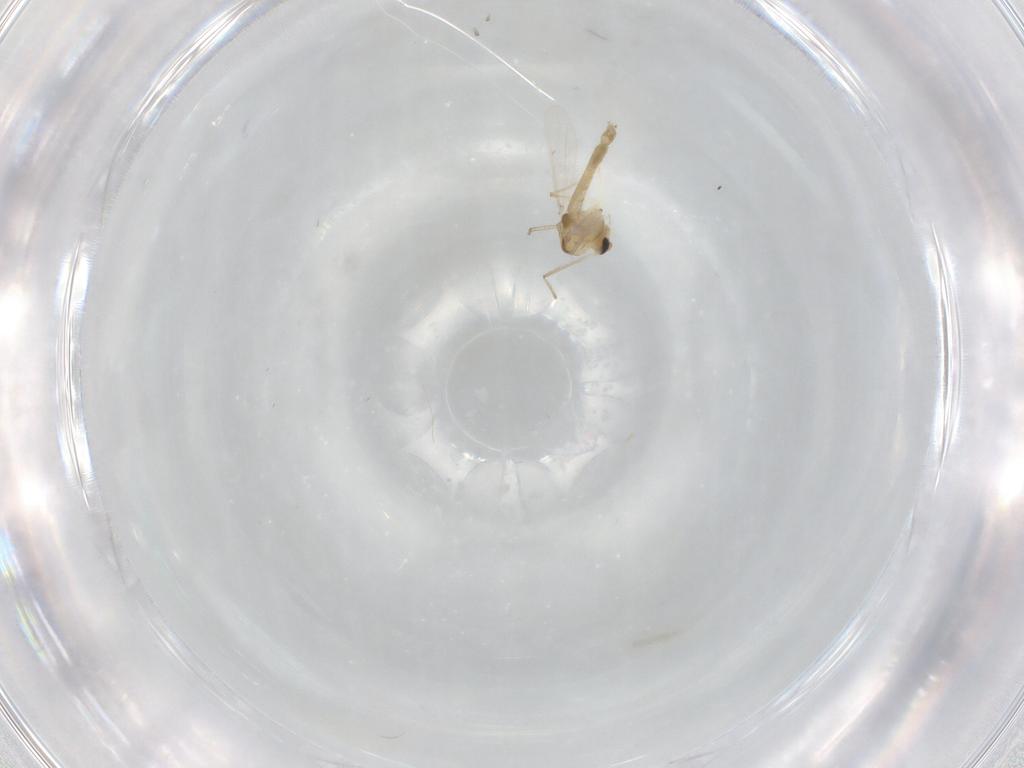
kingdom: Animalia
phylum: Arthropoda
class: Insecta
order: Diptera
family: Chironomidae
